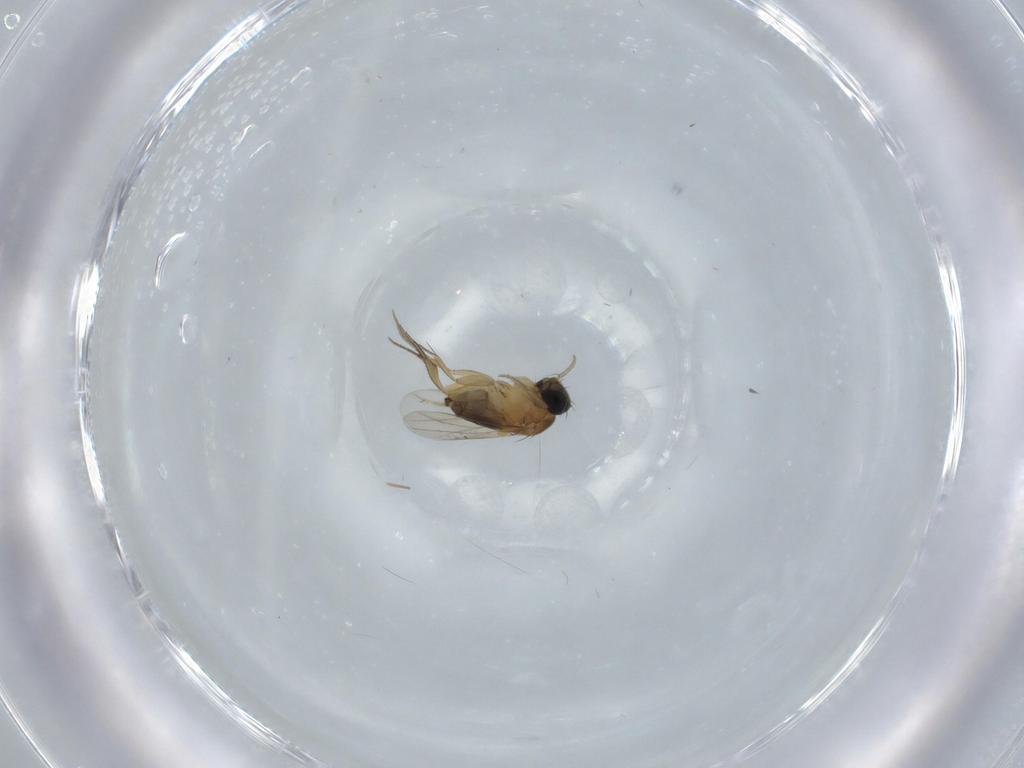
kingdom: Animalia
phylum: Arthropoda
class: Insecta
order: Diptera
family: Phoridae
